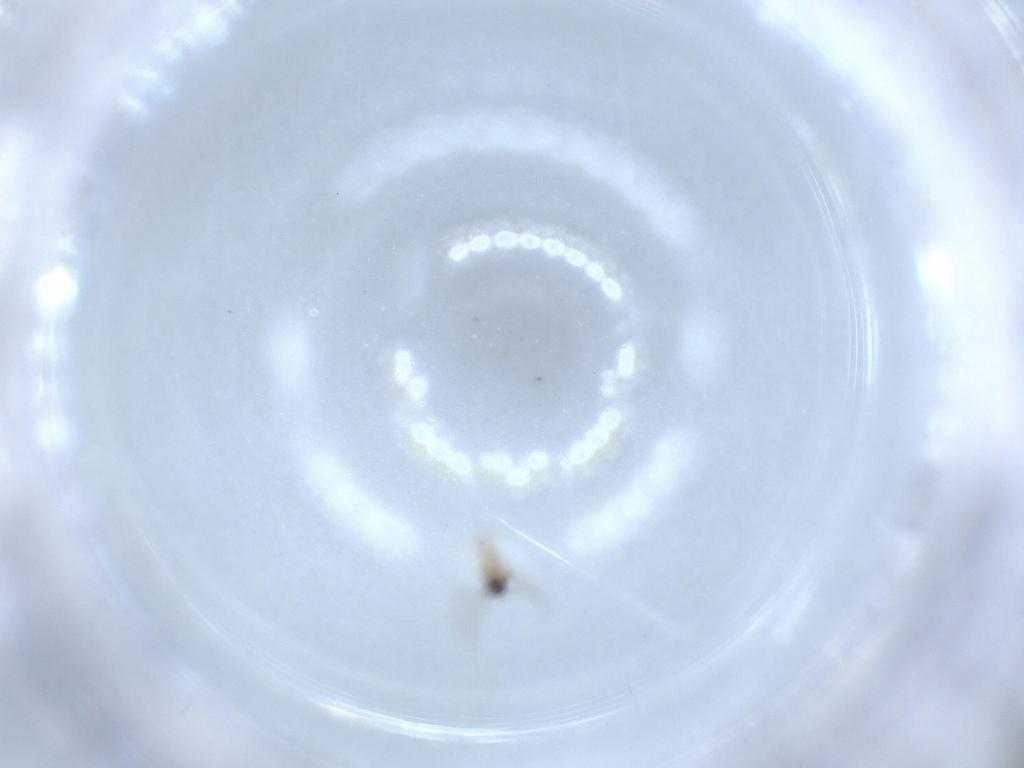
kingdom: Animalia
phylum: Arthropoda
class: Insecta
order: Diptera
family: Cecidomyiidae
